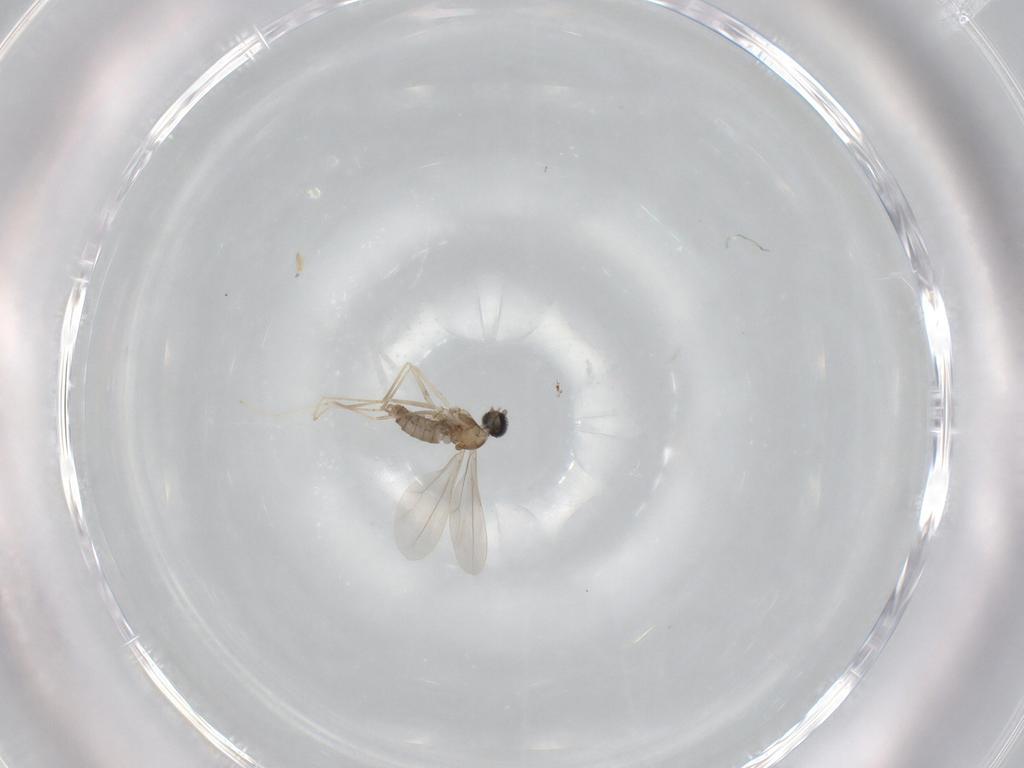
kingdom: Animalia
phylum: Arthropoda
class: Insecta
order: Diptera
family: Cecidomyiidae
